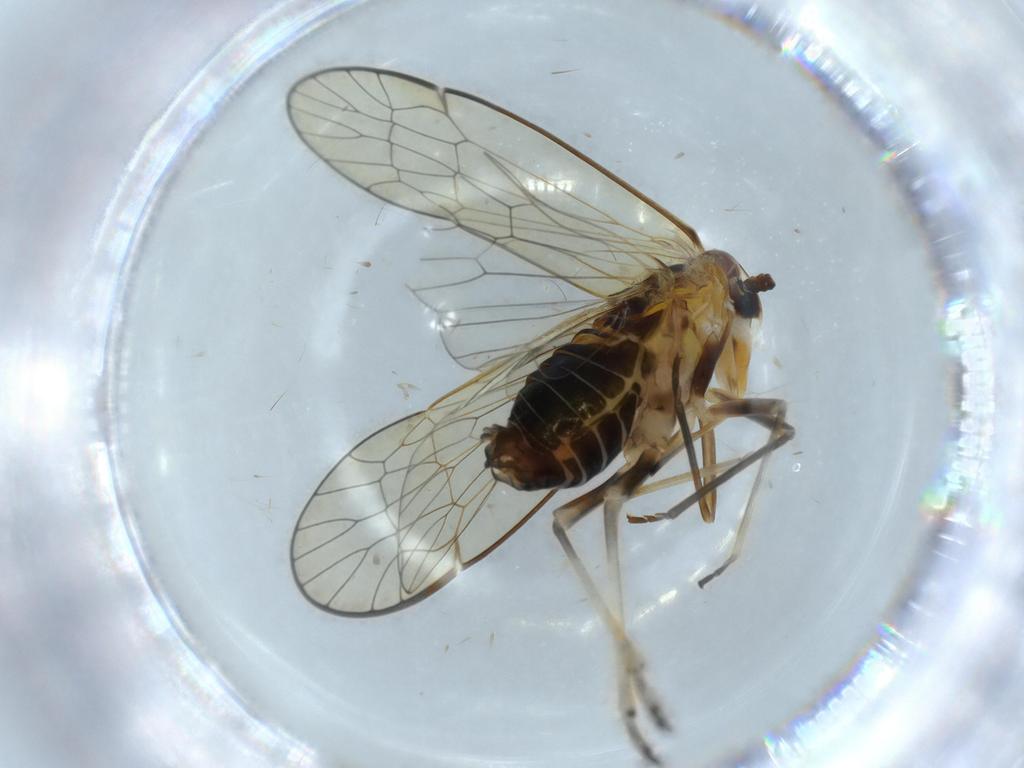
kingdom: Animalia
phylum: Arthropoda
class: Insecta
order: Hemiptera
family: Kinnaridae
